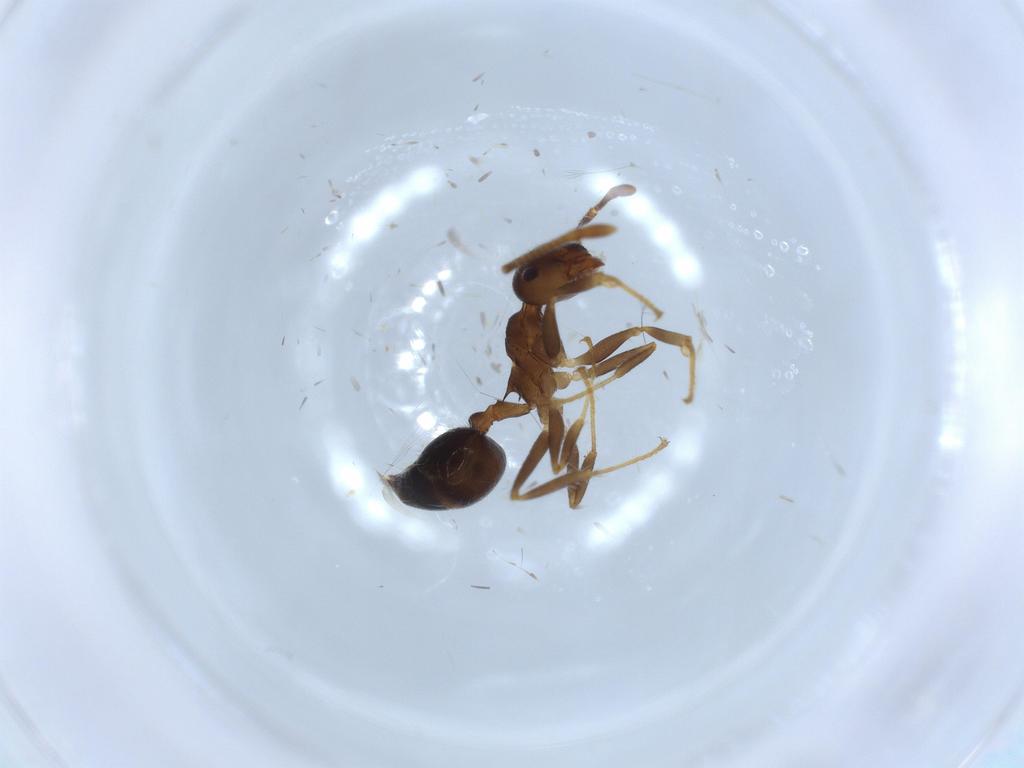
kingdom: Animalia
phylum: Arthropoda
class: Insecta
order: Hymenoptera
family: Formicidae
